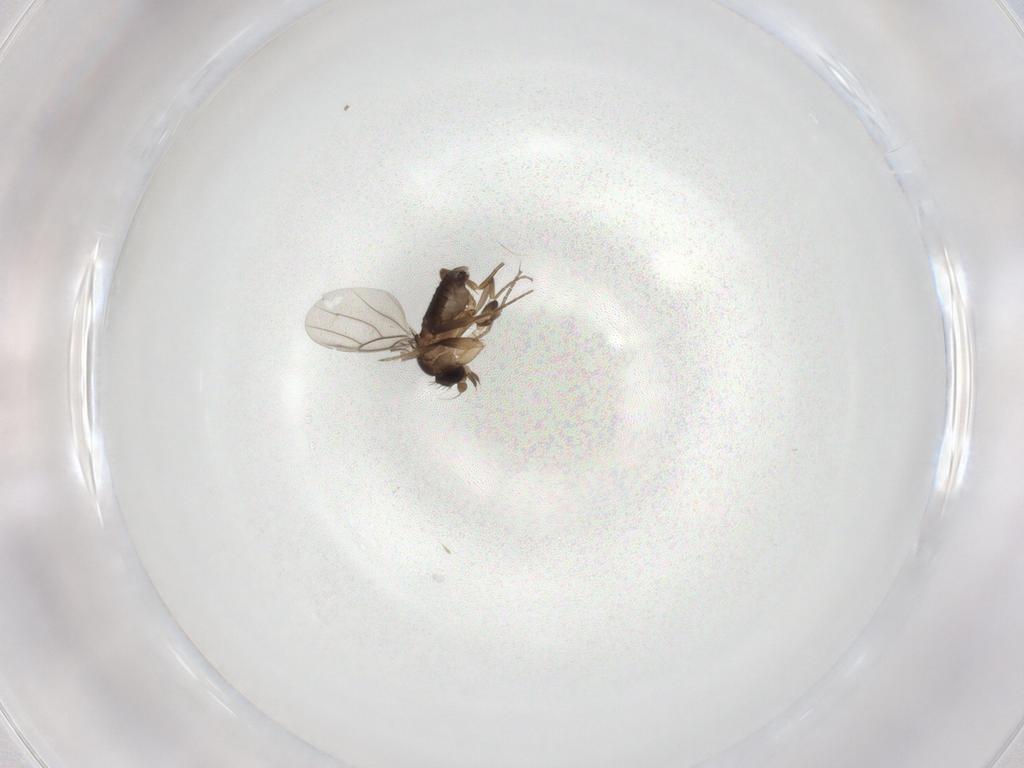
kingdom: Animalia
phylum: Arthropoda
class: Insecta
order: Diptera
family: Phoridae
